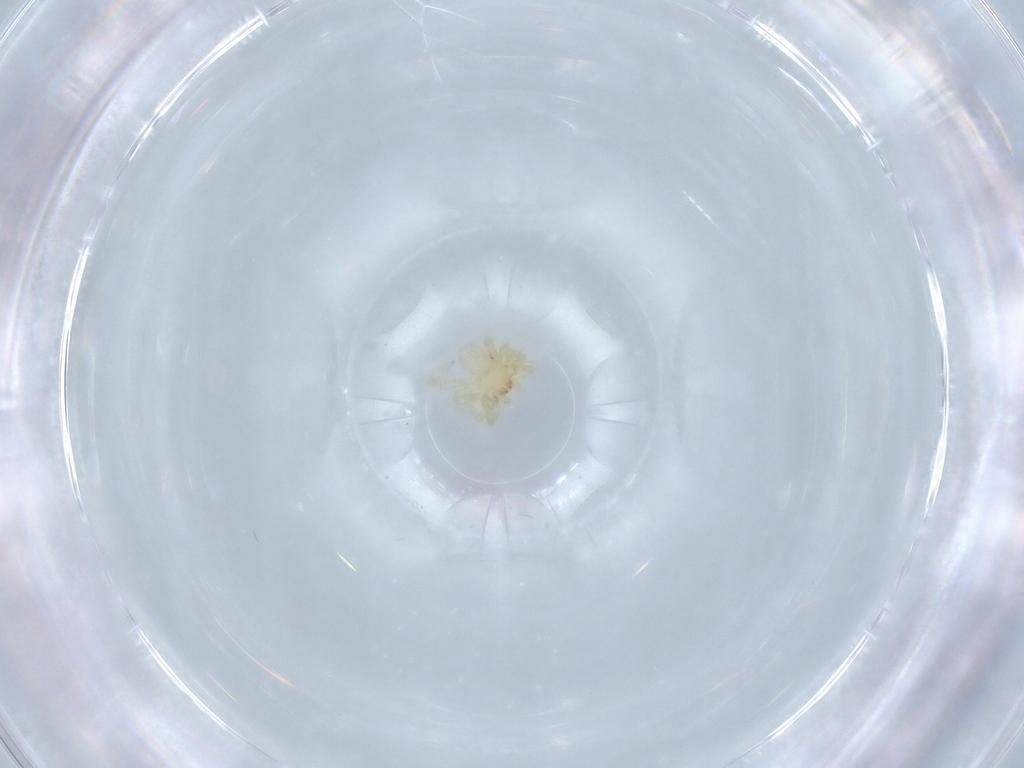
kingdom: Animalia
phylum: Arthropoda
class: Arachnida
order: Araneae
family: Theridiidae
